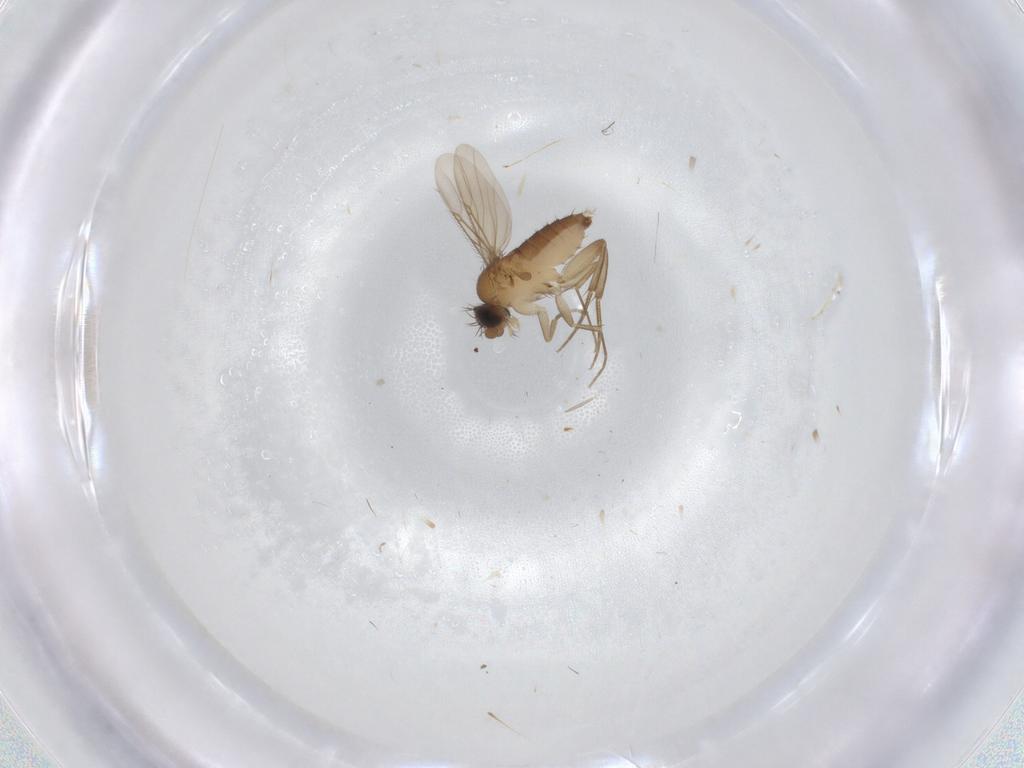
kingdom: Animalia
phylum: Arthropoda
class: Insecta
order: Diptera
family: Phoridae
